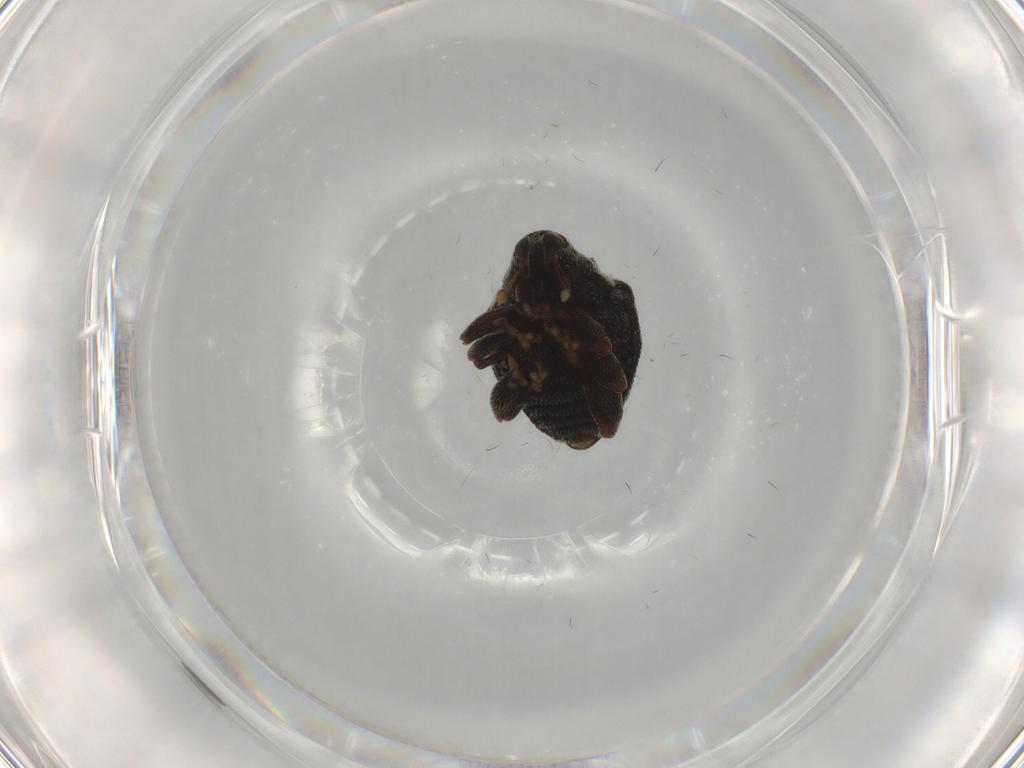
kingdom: Animalia
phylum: Arthropoda
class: Insecta
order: Coleoptera
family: Curculionidae
